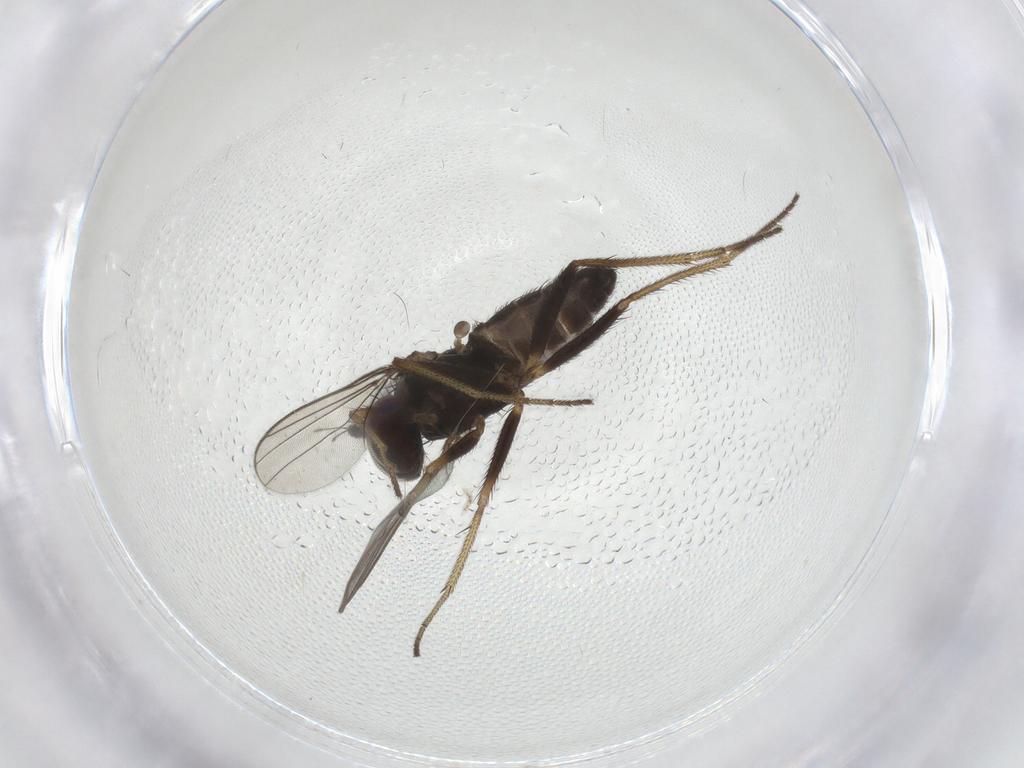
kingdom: Animalia
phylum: Arthropoda
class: Insecta
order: Diptera
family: Dolichopodidae
